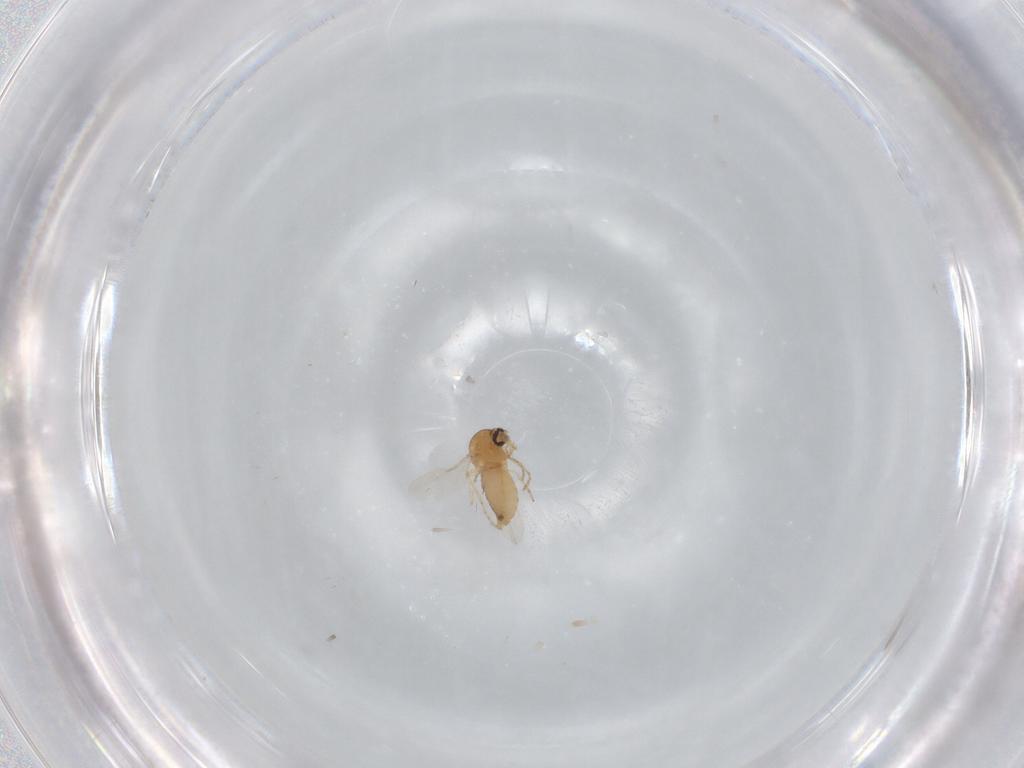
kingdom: Animalia
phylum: Arthropoda
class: Insecta
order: Diptera
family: Ceratopogonidae
